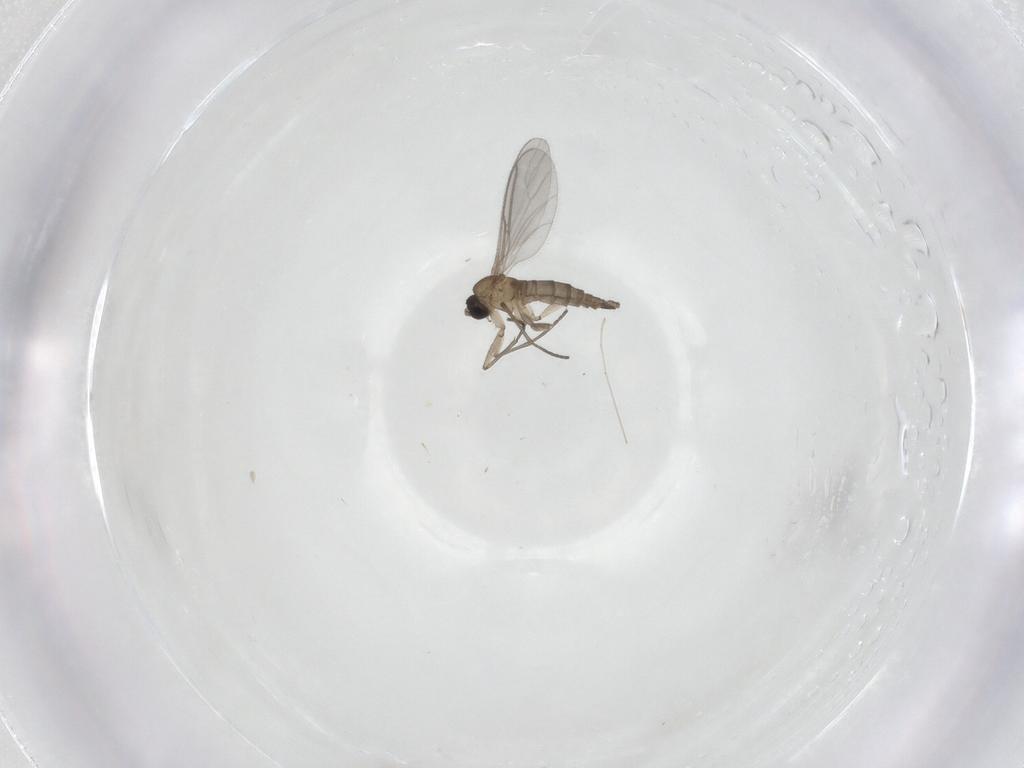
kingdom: Animalia
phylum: Arthropoda
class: Insecta
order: Diptera
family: Sciaridae
